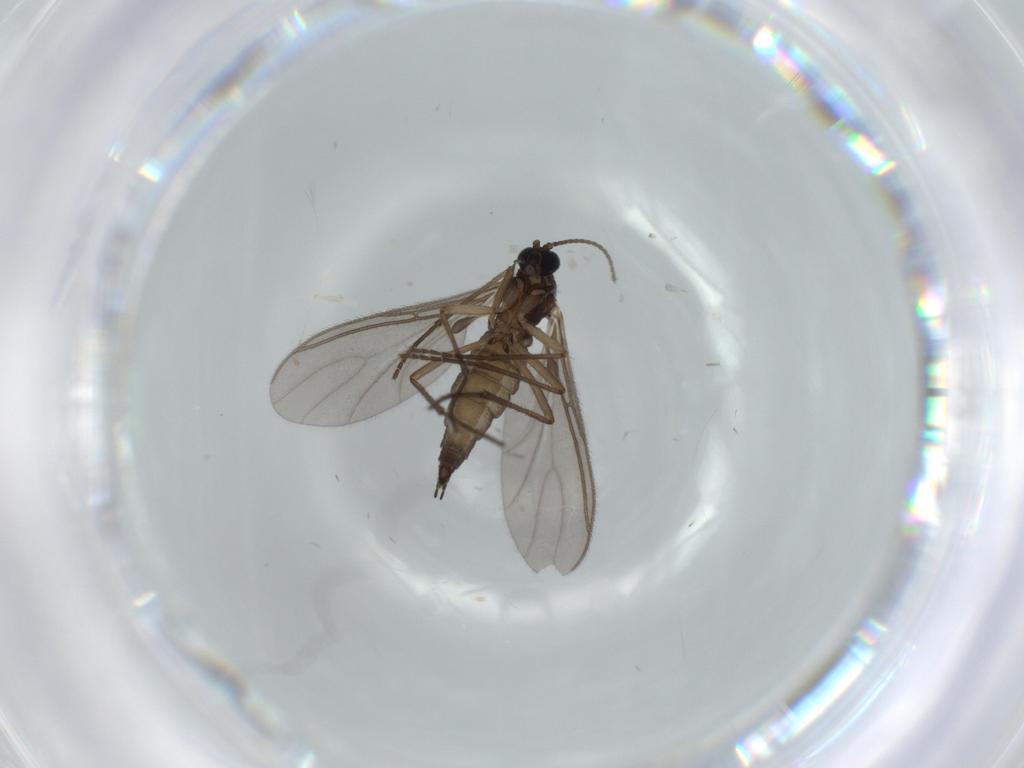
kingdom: Animalia
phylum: Arthropoda
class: Insecta
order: Diptera
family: Sciaridae
